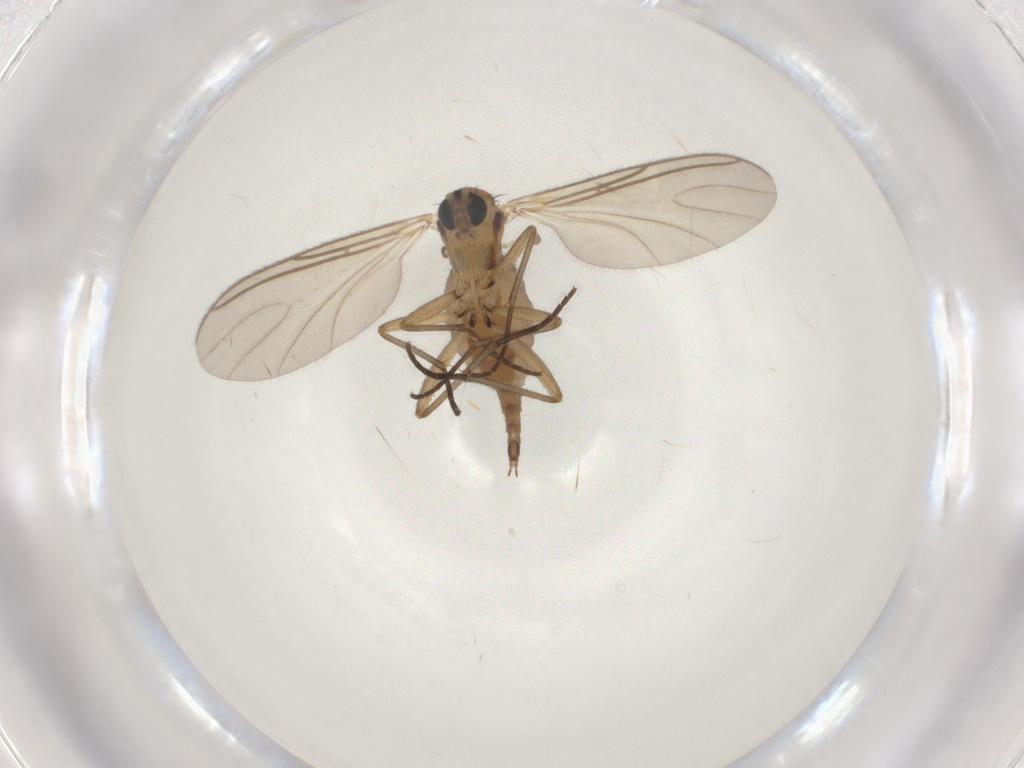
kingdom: Animalia
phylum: Arthropoda
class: Insecta
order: Diptera
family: Sciaridae
